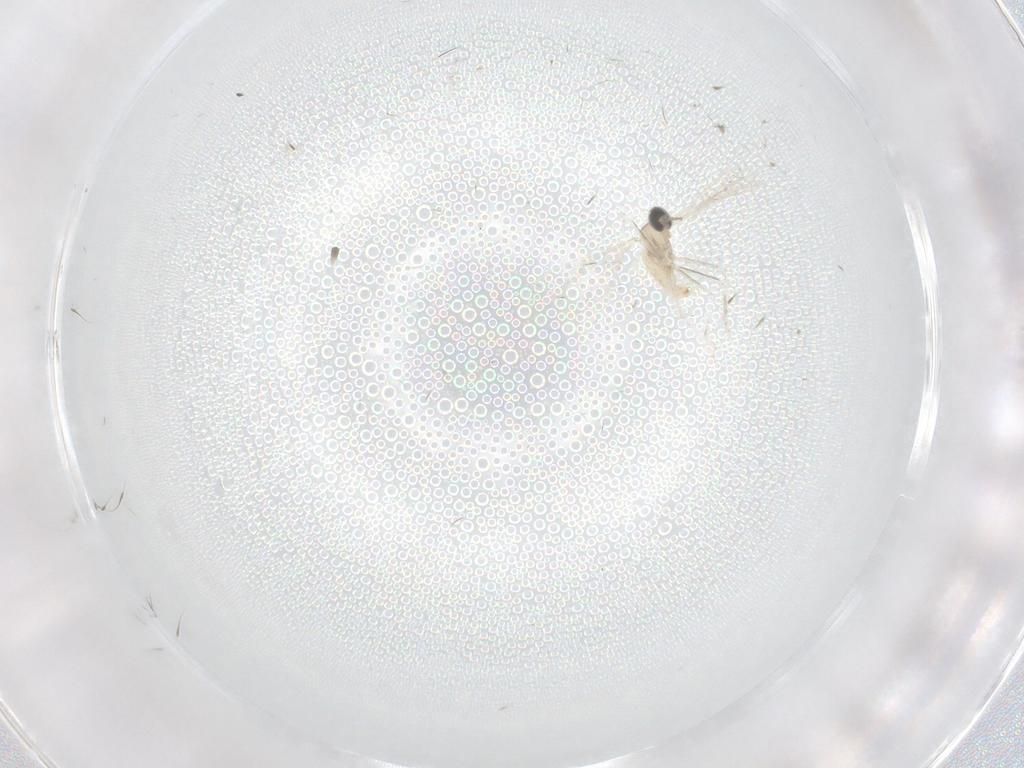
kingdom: Animalia
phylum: Arthropoda
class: Insecta
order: Diptera
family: Cecidomyiidae
